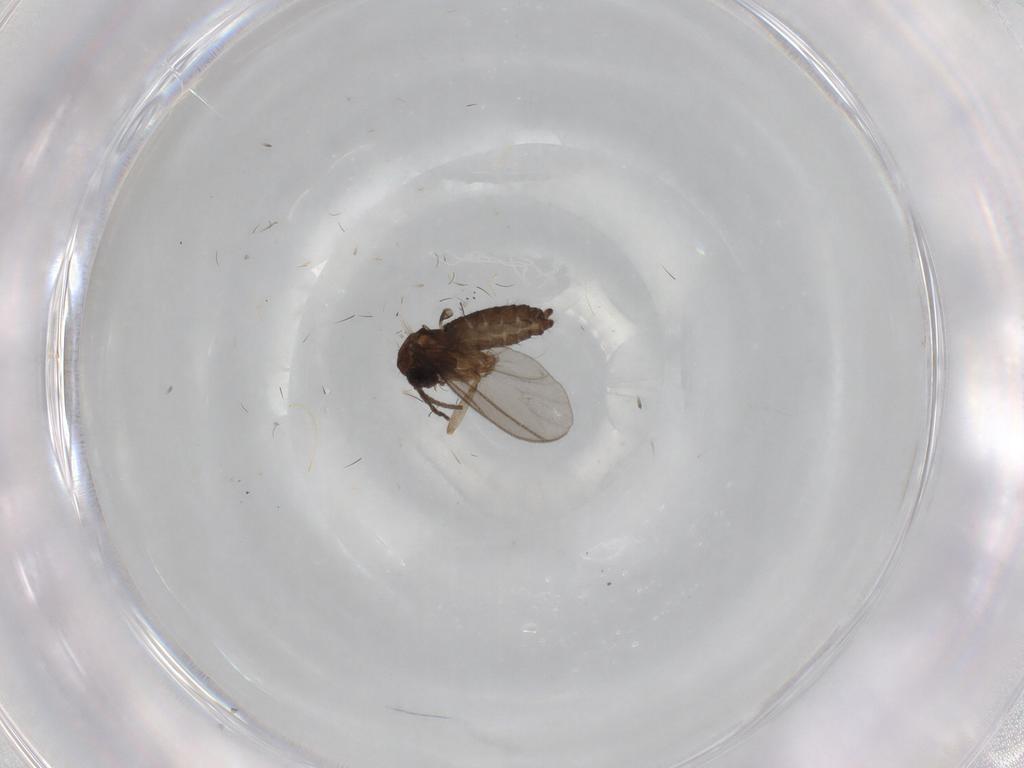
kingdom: Animalia
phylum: Arthropoda
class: Insecta
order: Diptera
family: Sciaridae
